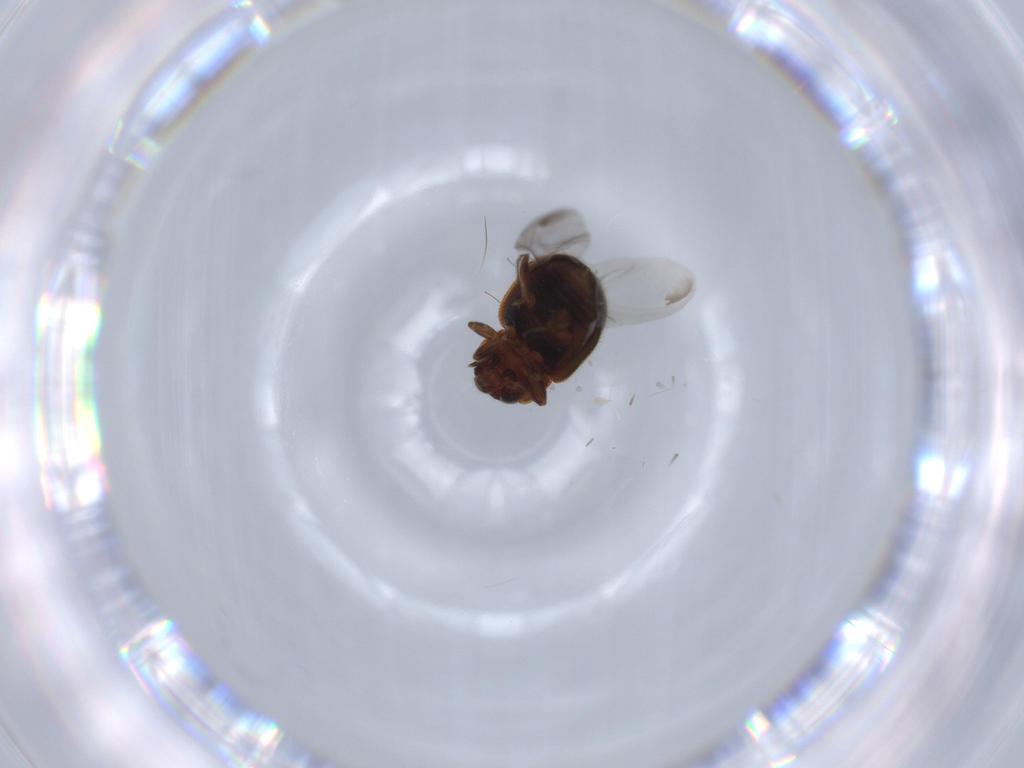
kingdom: Animalia
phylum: Arthropoda
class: Insecta
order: Coleoptera
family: Coccinellidae
